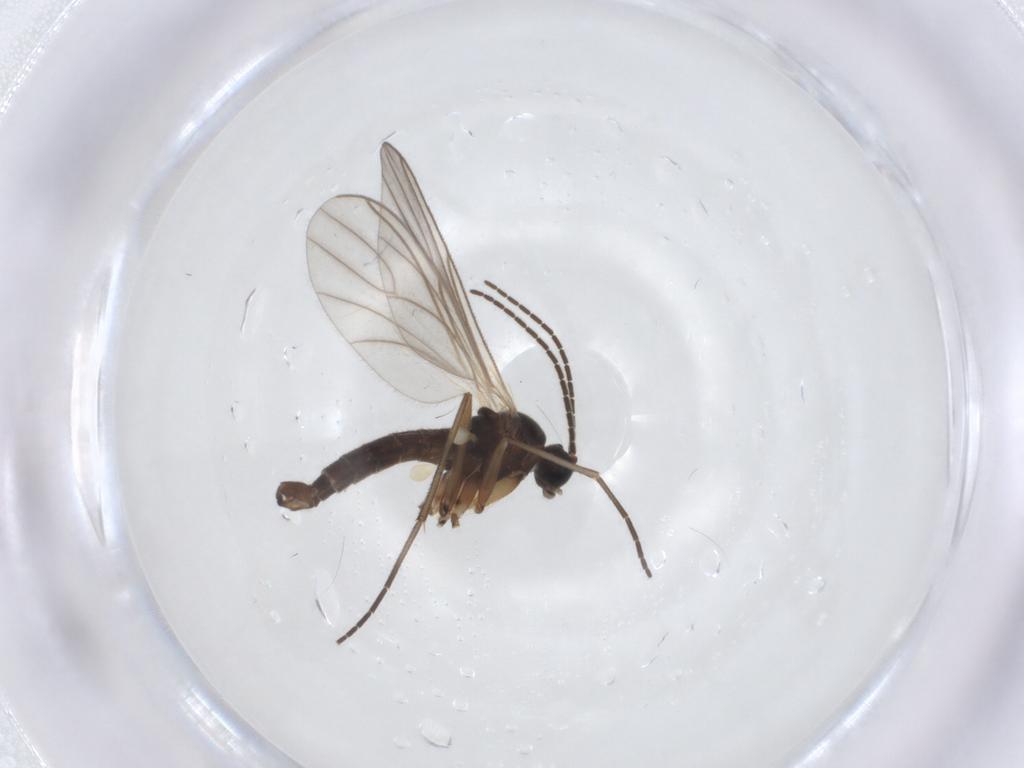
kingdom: Animalia
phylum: Arthropoda
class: Insecta
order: Diptera
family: Sciaridae
